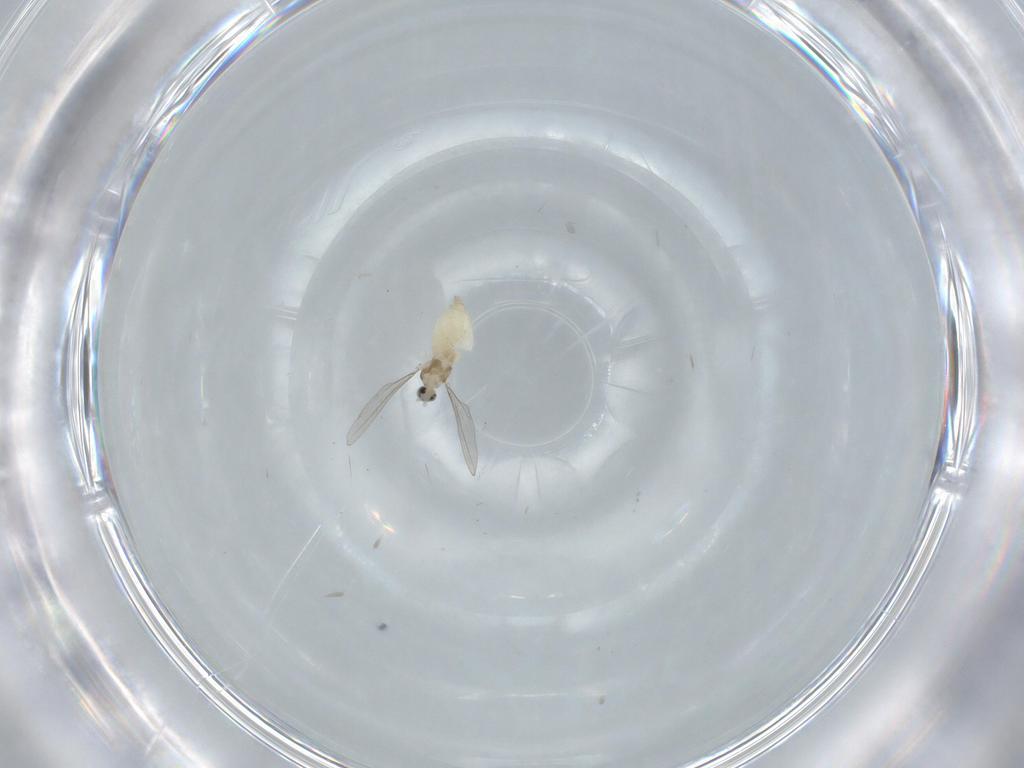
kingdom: Animalia
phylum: Arthropoda
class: Insecta
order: Diptera
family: Cecidomyiidae
